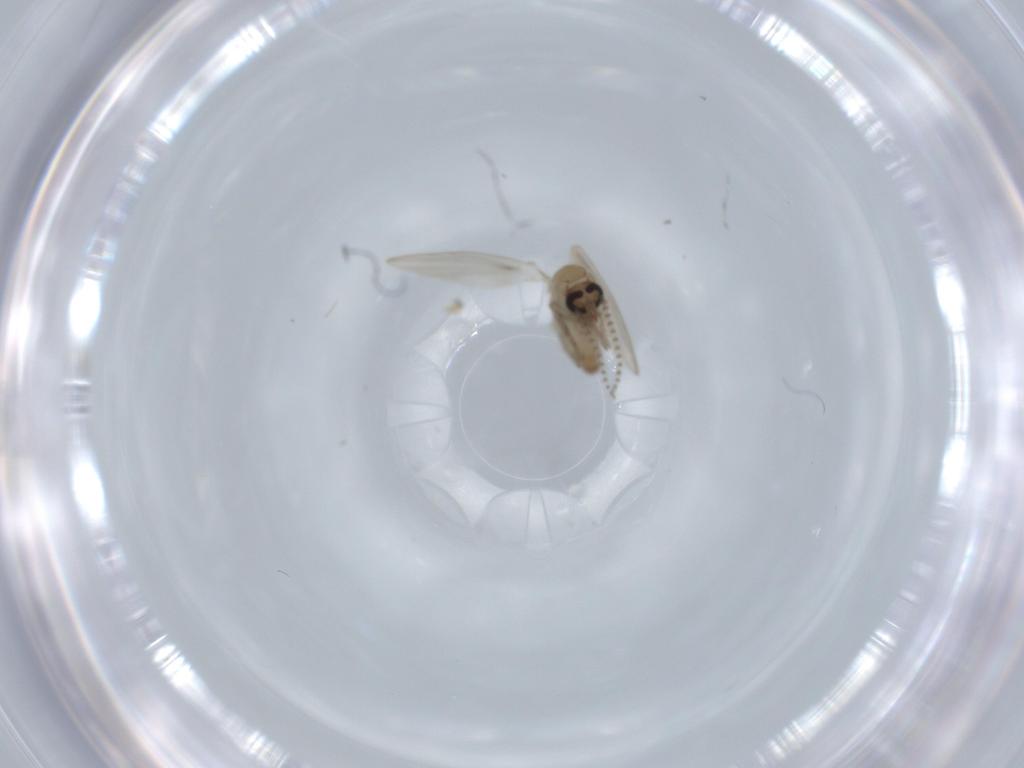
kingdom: Animalia
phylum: Arthropoda
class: Insecta
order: Diptera
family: Psychodidae
